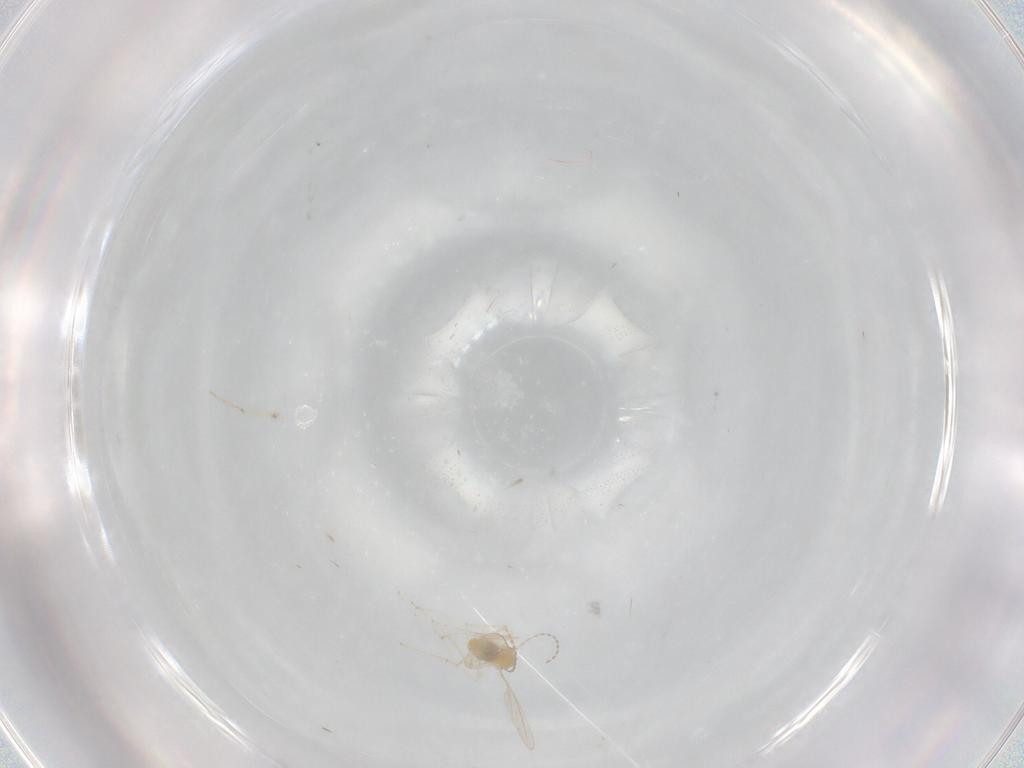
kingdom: Animalia
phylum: Arthropoda
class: Insecta
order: Diptera
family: Cecidomyiidae
